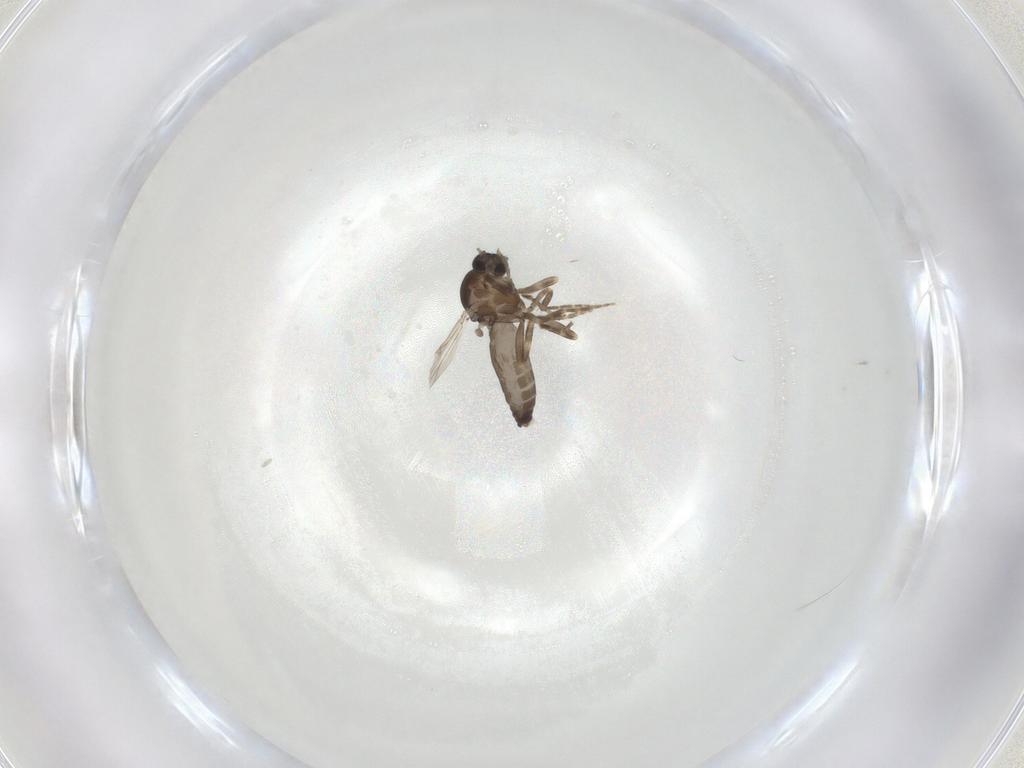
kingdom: Animalia
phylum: Arthropoda
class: Insecta
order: Diptera
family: Ceratopogonidae
